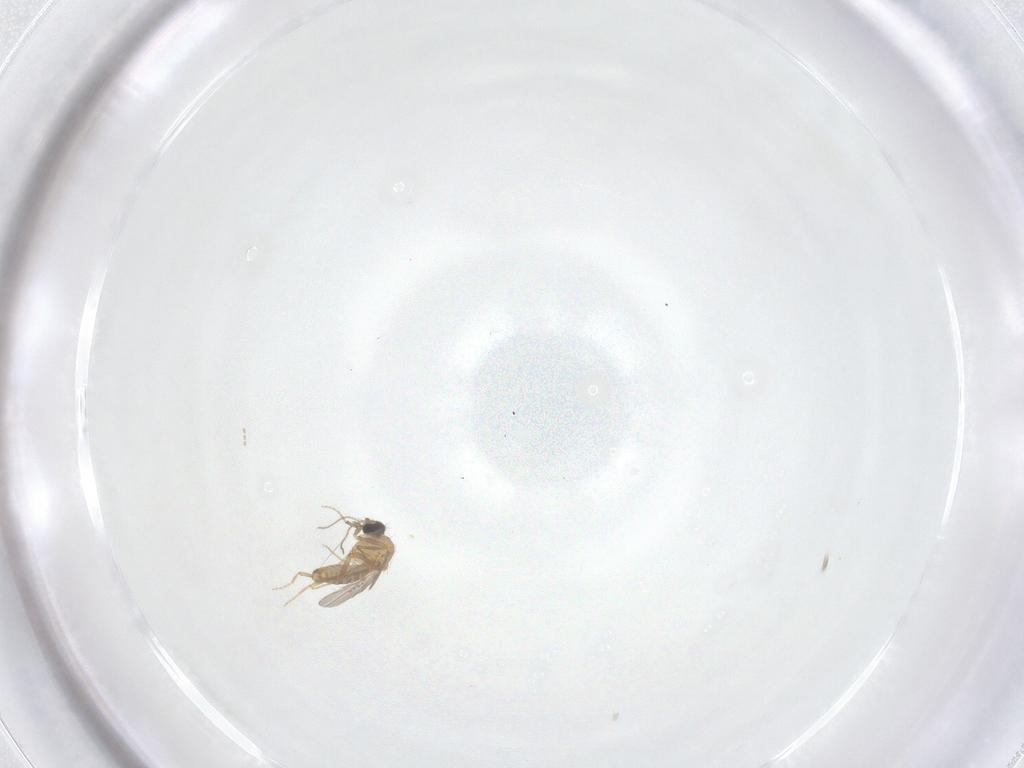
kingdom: Animalia
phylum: Arthropoda
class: Insecta
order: Diptera
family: Ceratopogonidae
